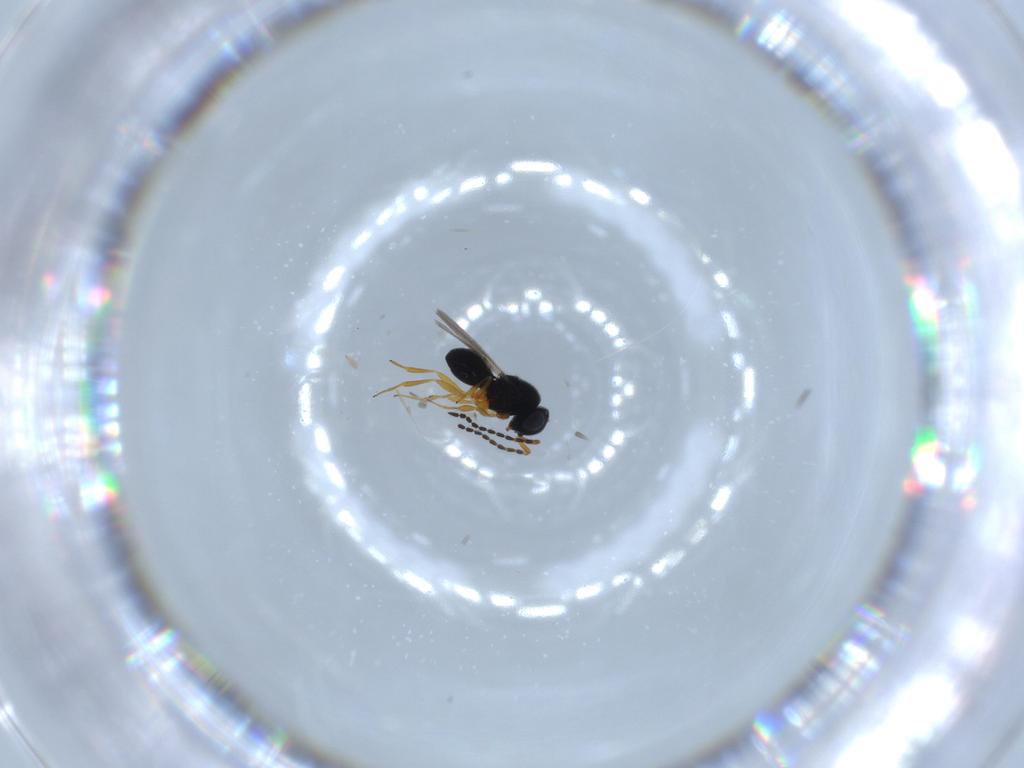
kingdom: Animalia
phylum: Arthropoda
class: Insecta
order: Hymenoptera
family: Scelionidae
